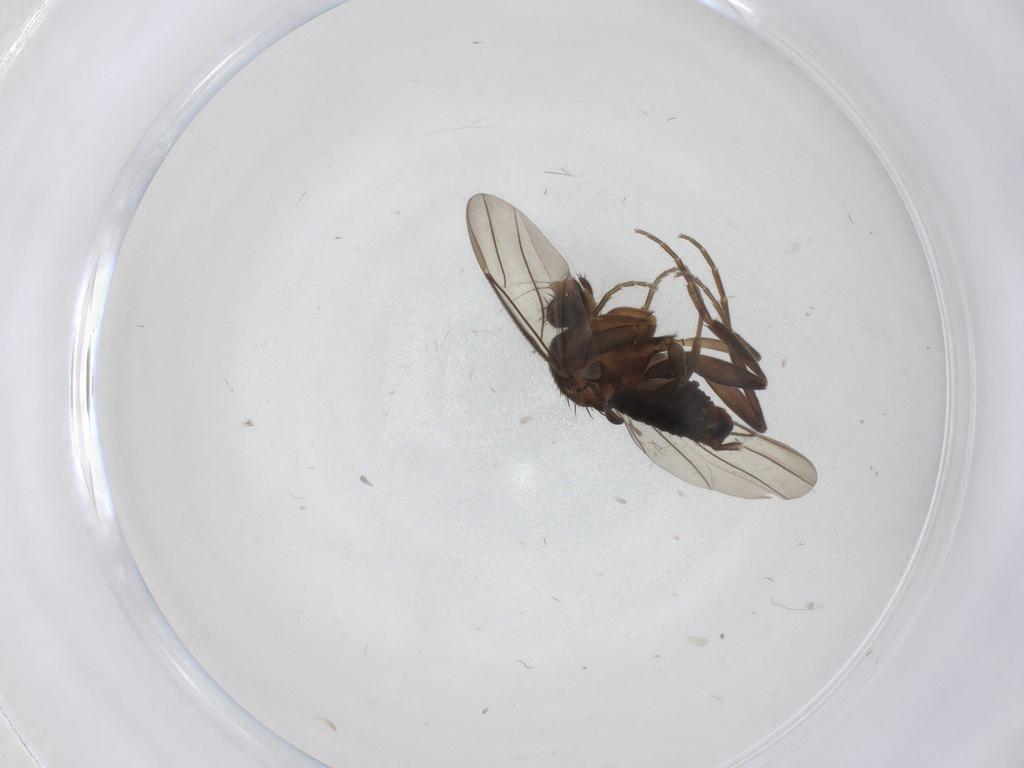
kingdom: Animalia
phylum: Arthropoda
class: Insecta
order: Diptera
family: Chironomidae
